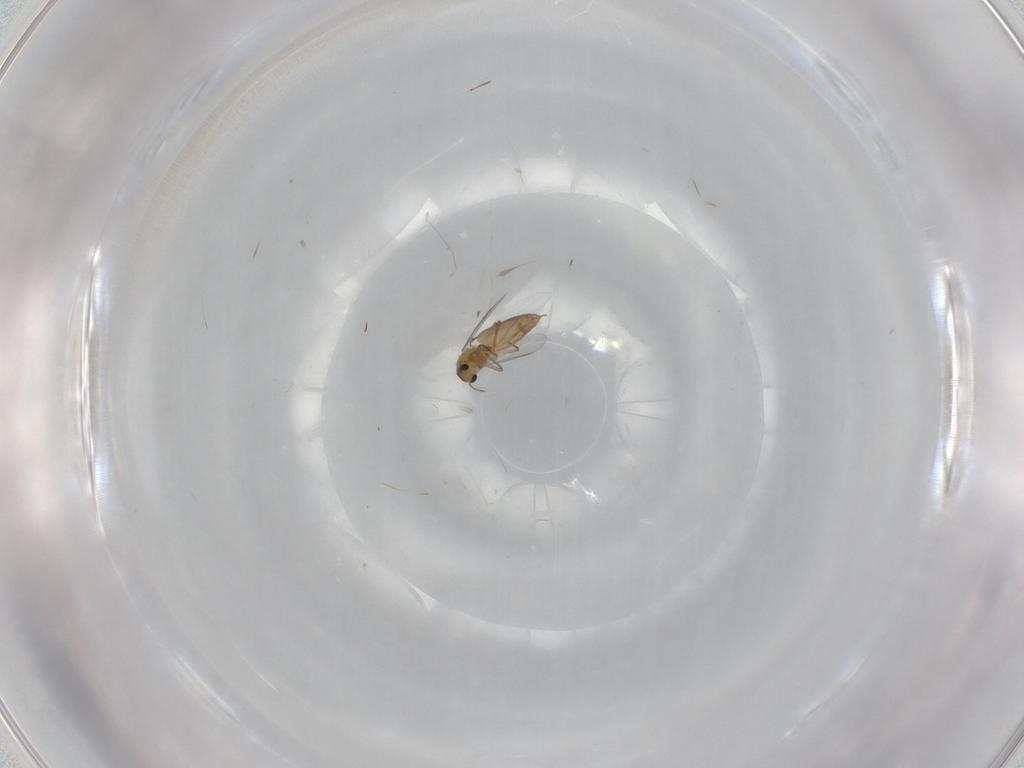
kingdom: Animalia
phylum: Arthropoda
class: Insecta
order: Diptera
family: Chironomidae
